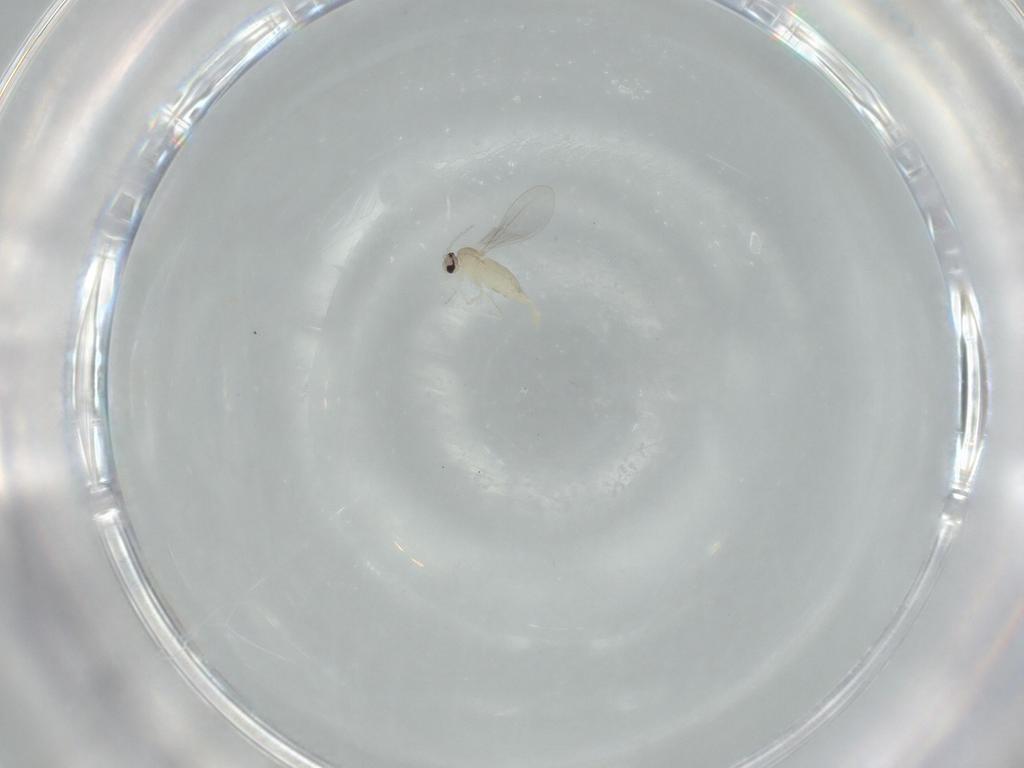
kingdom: Animalia
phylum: Arthropoda
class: Insecta
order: Diptera
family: Cecidomyiidae
